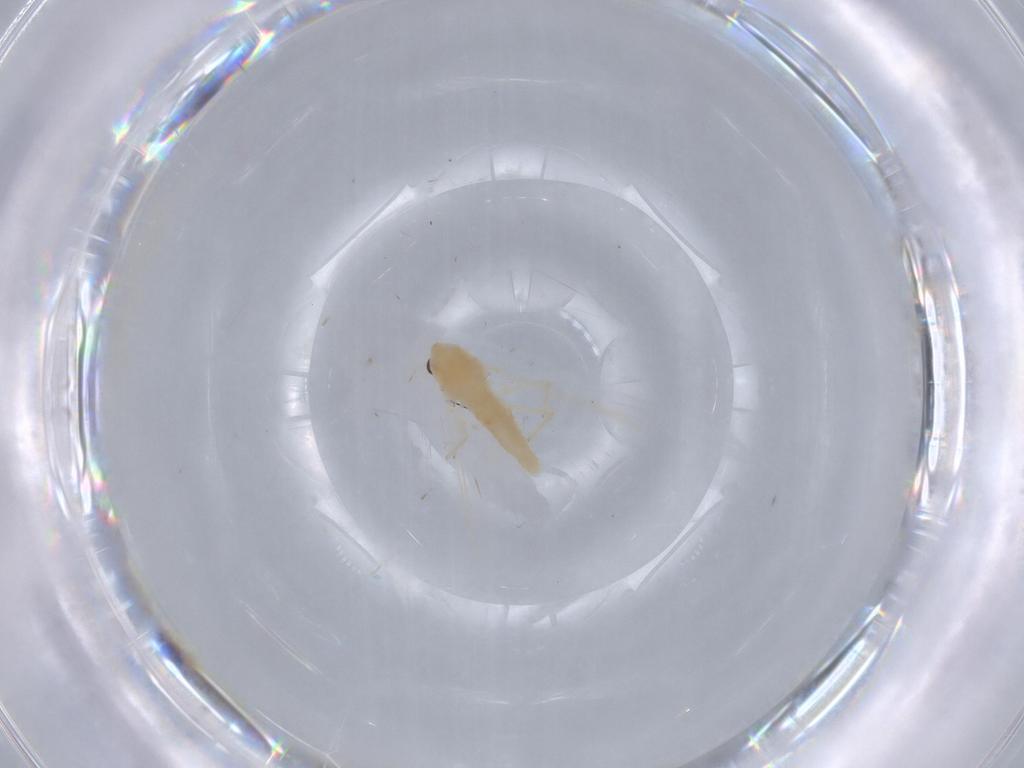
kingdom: Animalia
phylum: Arthropoda
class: Insecta
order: Diptera
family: Chironomidae
